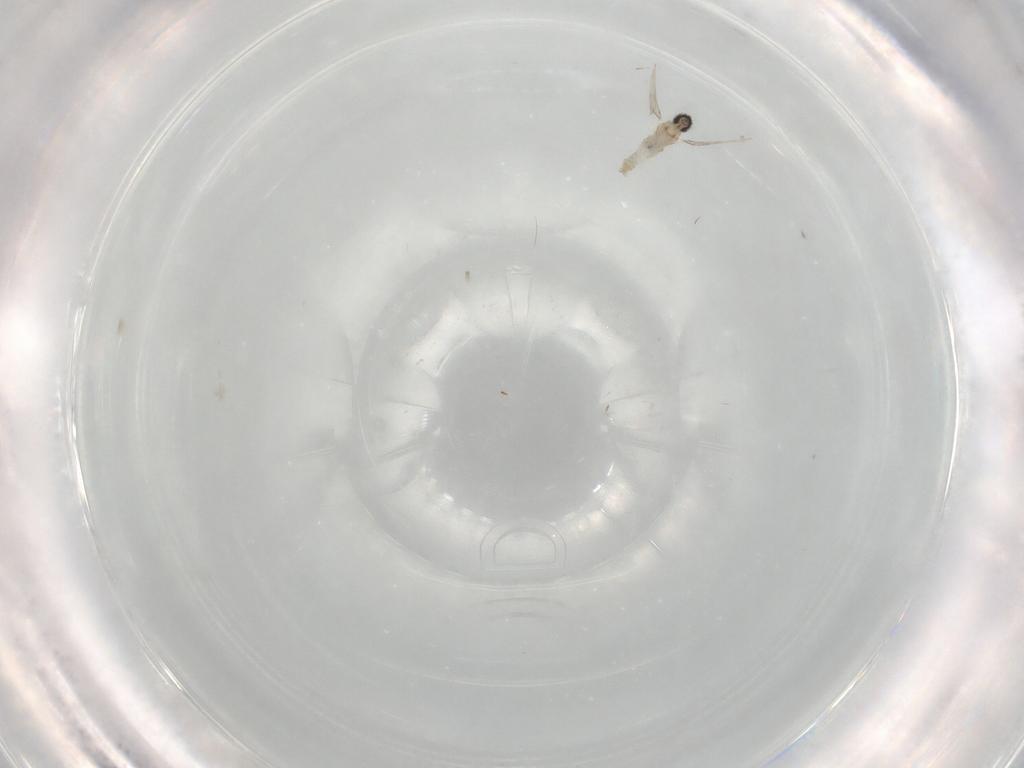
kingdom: Animalia
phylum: Arthropoda
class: Insecta
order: Diptera
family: Cecidomyiidae
